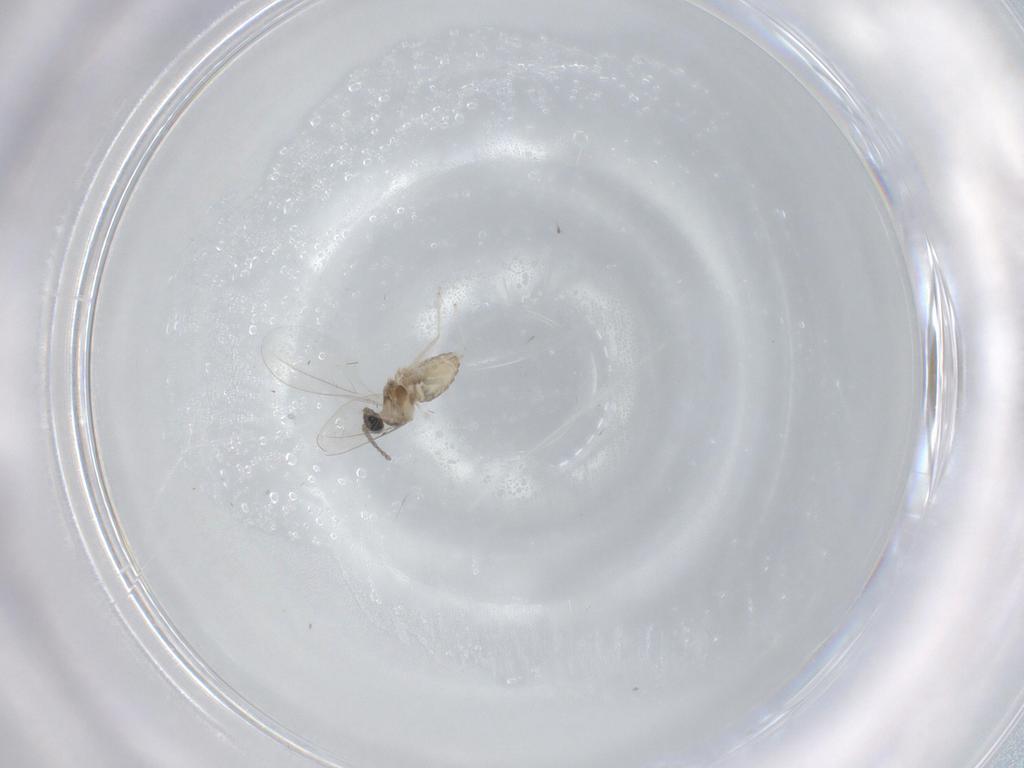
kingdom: Animalia
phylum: Arthropoda
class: Insecta
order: Diptera
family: Cecidomyiidae
